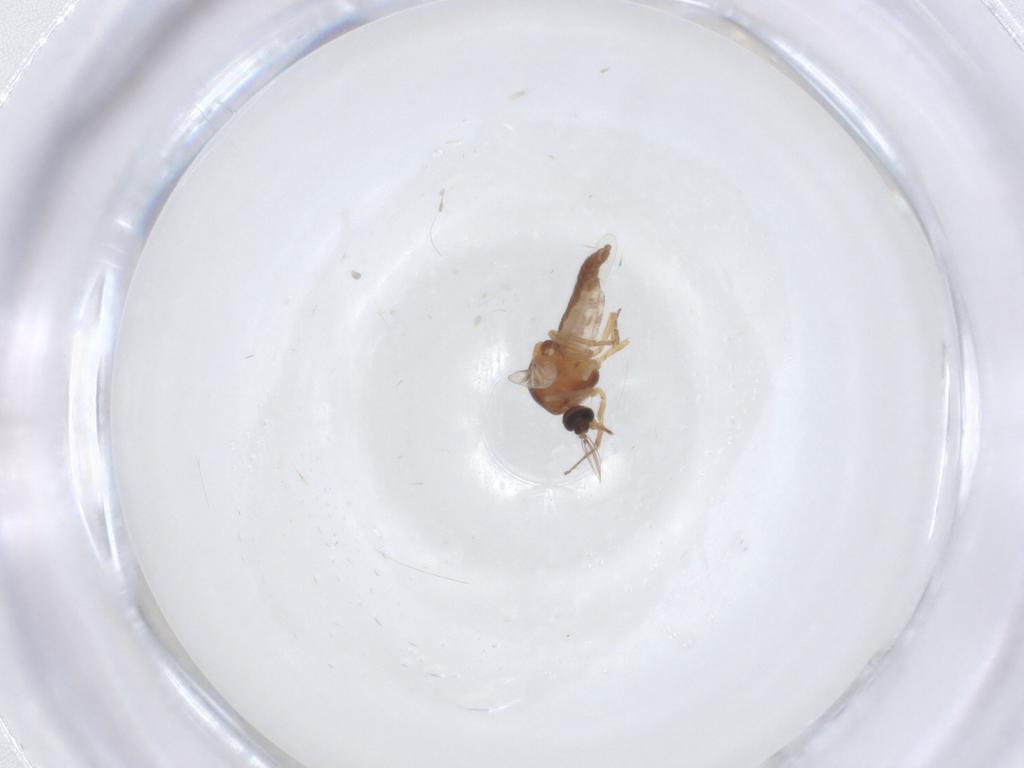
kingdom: Animalia
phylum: Arthropoda
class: Insecta
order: Diptera
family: Ceratopogonidae
